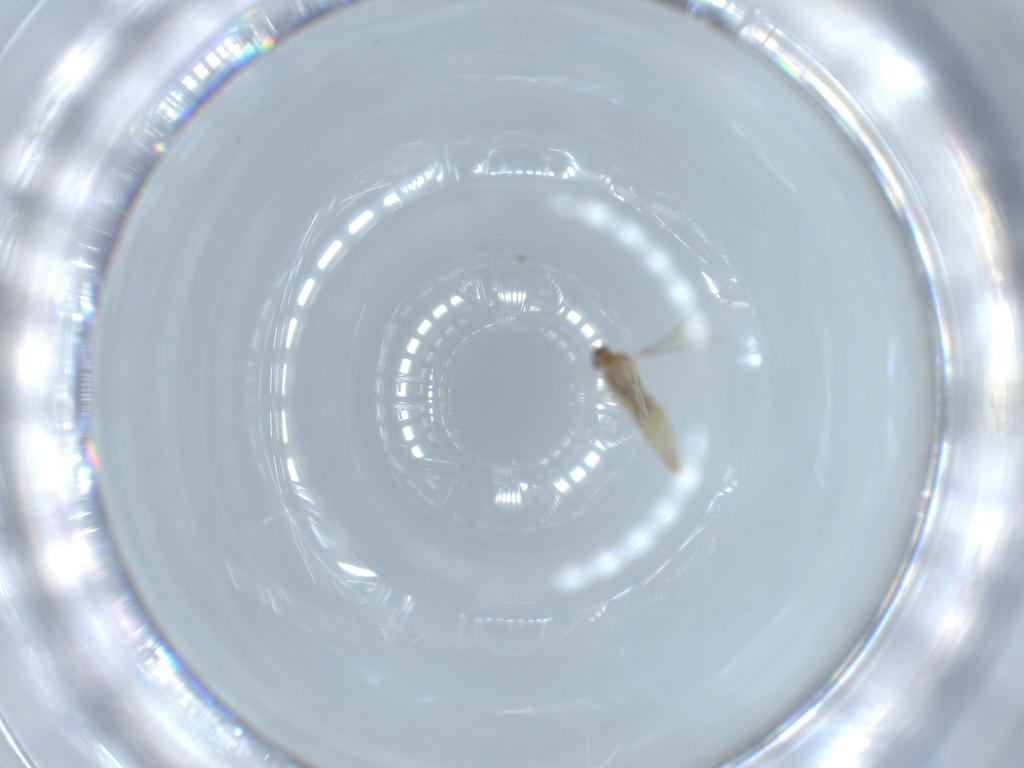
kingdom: Animalia
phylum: Arthropoda
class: Insecta
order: Diptera
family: Cecidomyiidae
